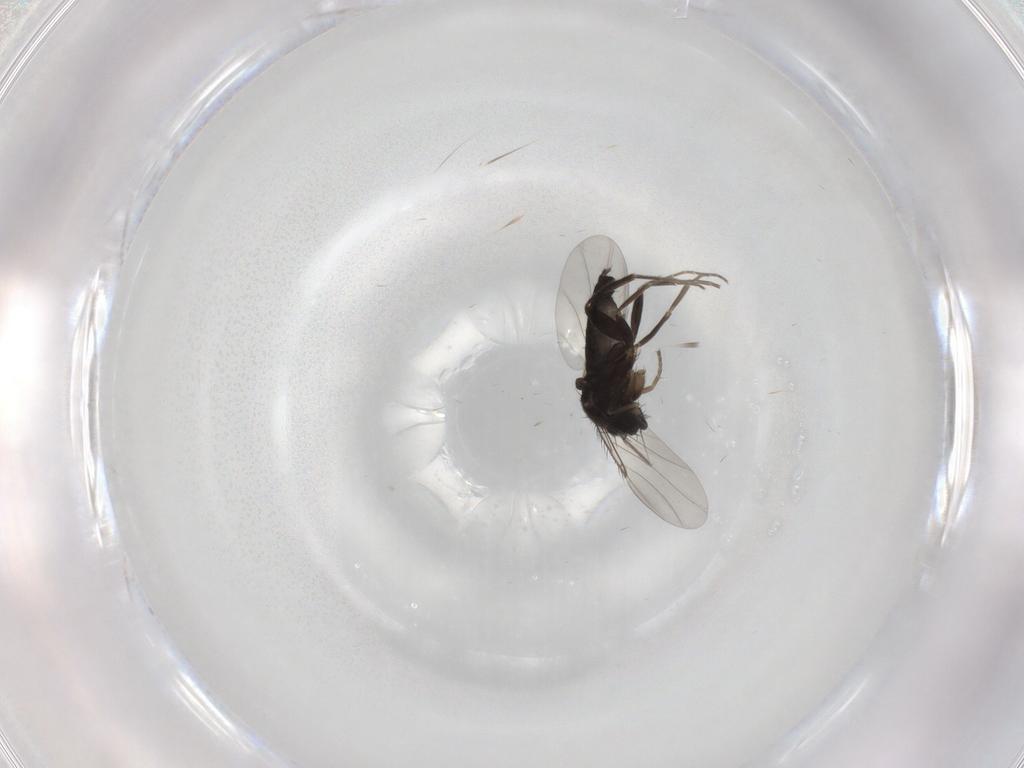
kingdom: Animalia
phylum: Arthropoda
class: Insecta
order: Diptera
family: Phoridae
